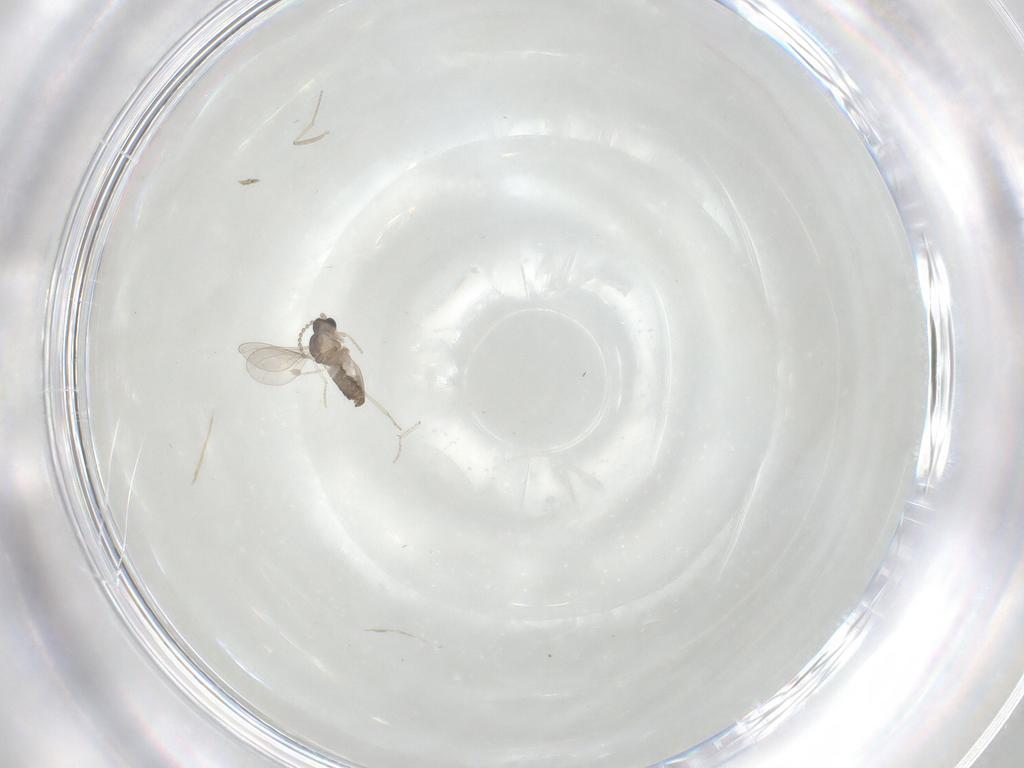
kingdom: Animalia
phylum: Arthropoda
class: Insecta
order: Diptera
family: Cecidomyiidae
